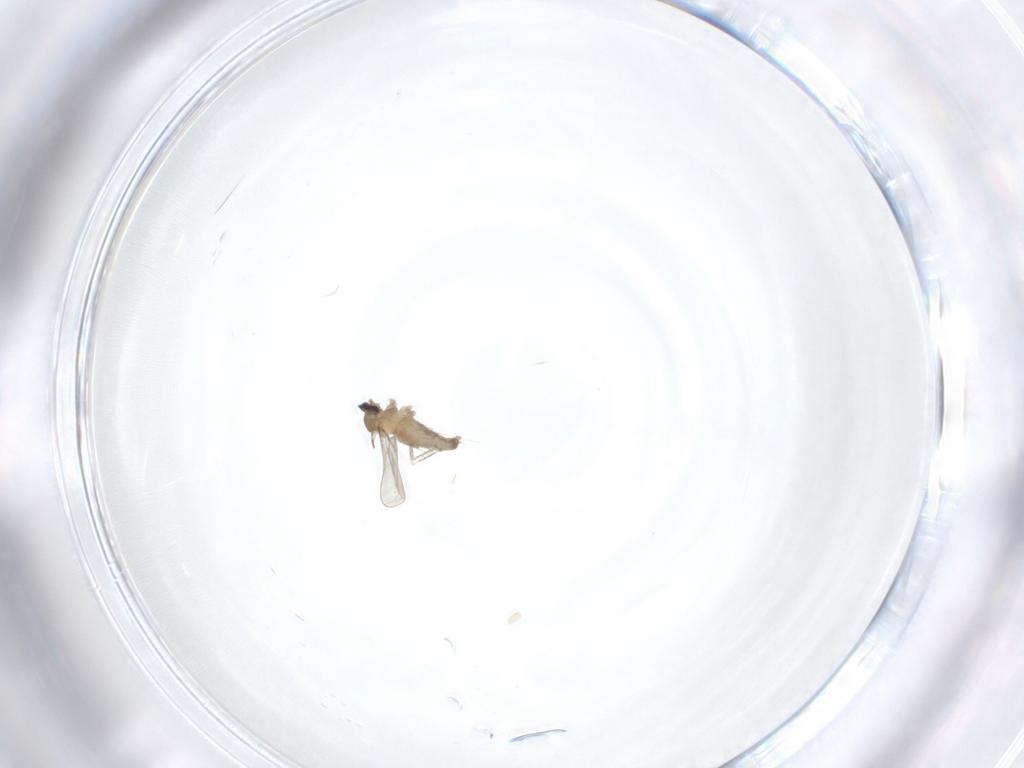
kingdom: Animalia
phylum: Arthropoda
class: Insecta
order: Diptera
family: Cecidomyiidae
